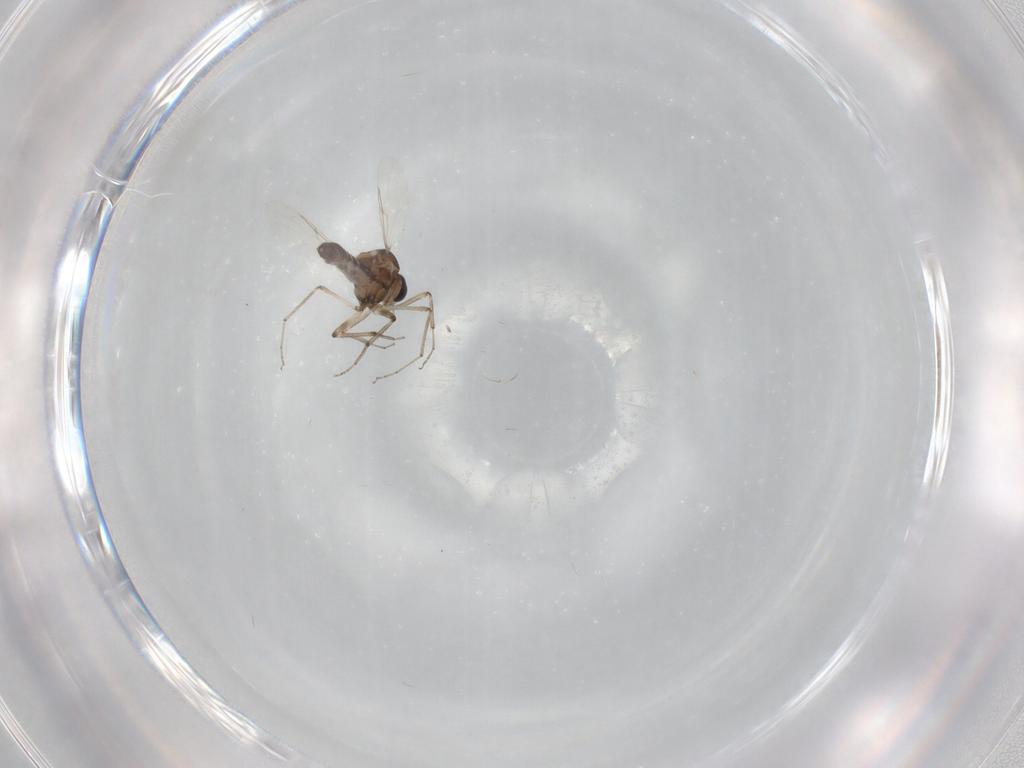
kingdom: Animalia
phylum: Arthropoda
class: Insecta
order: Diptera
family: Ceratopogonidae
